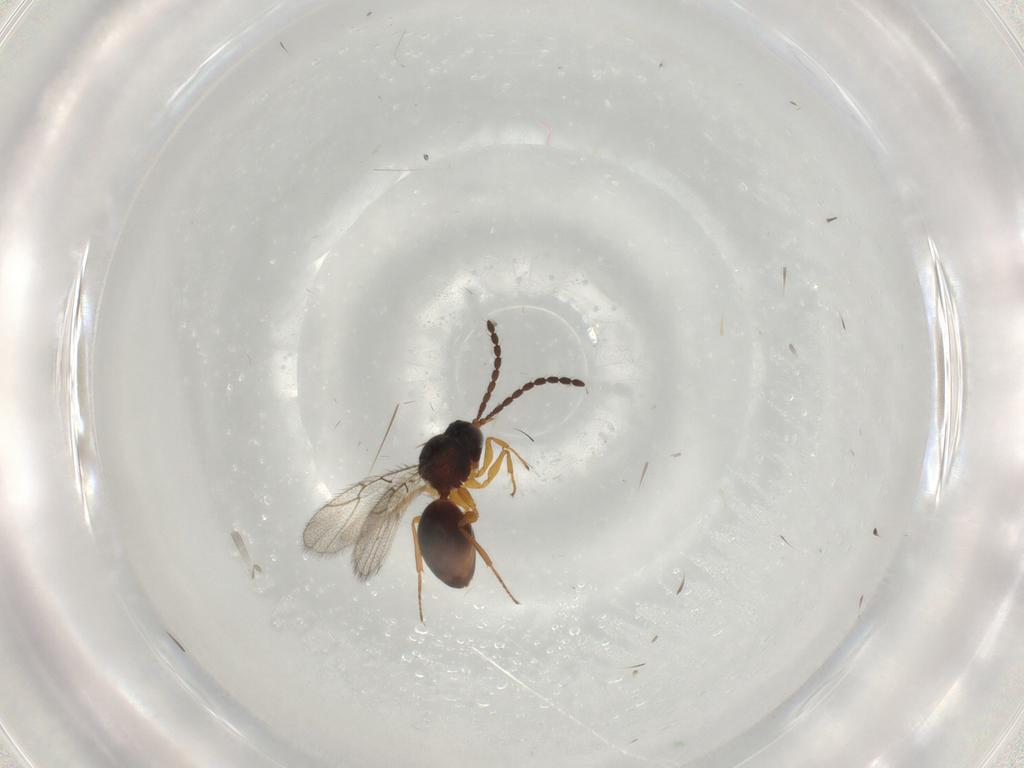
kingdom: Animalia
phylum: Arthropoda
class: Insecta
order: Hymenoptera
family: Figitidae
